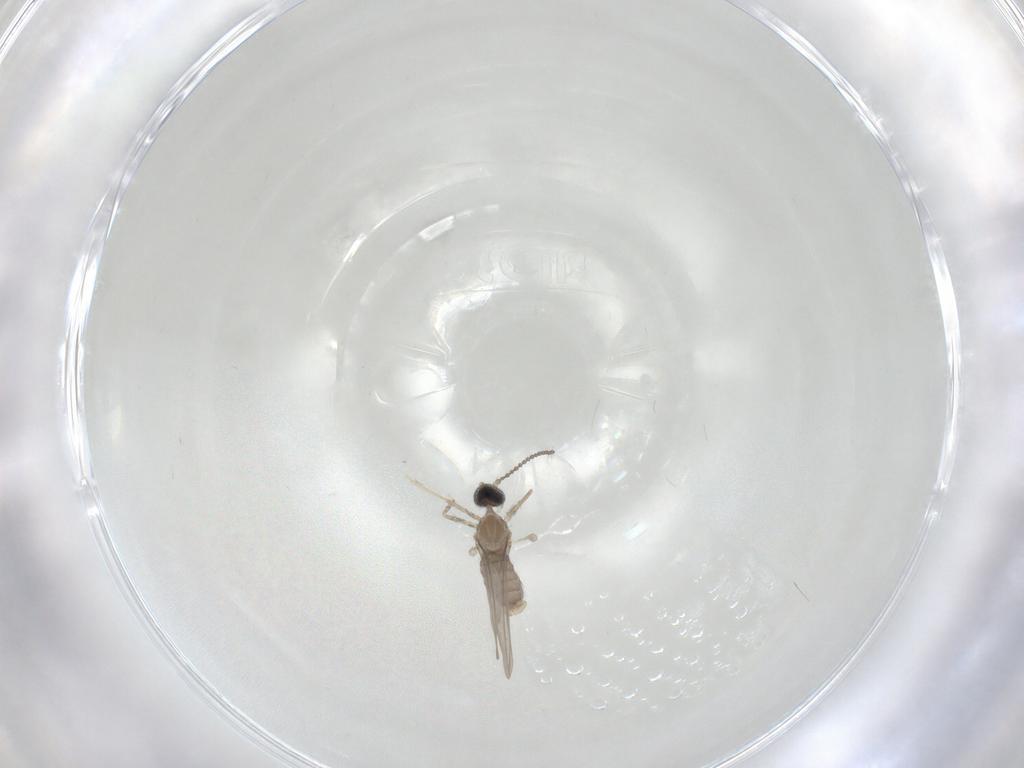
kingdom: Animalia
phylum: Arthropoda
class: Insecta
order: Diptera
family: Cecidomyiidae
